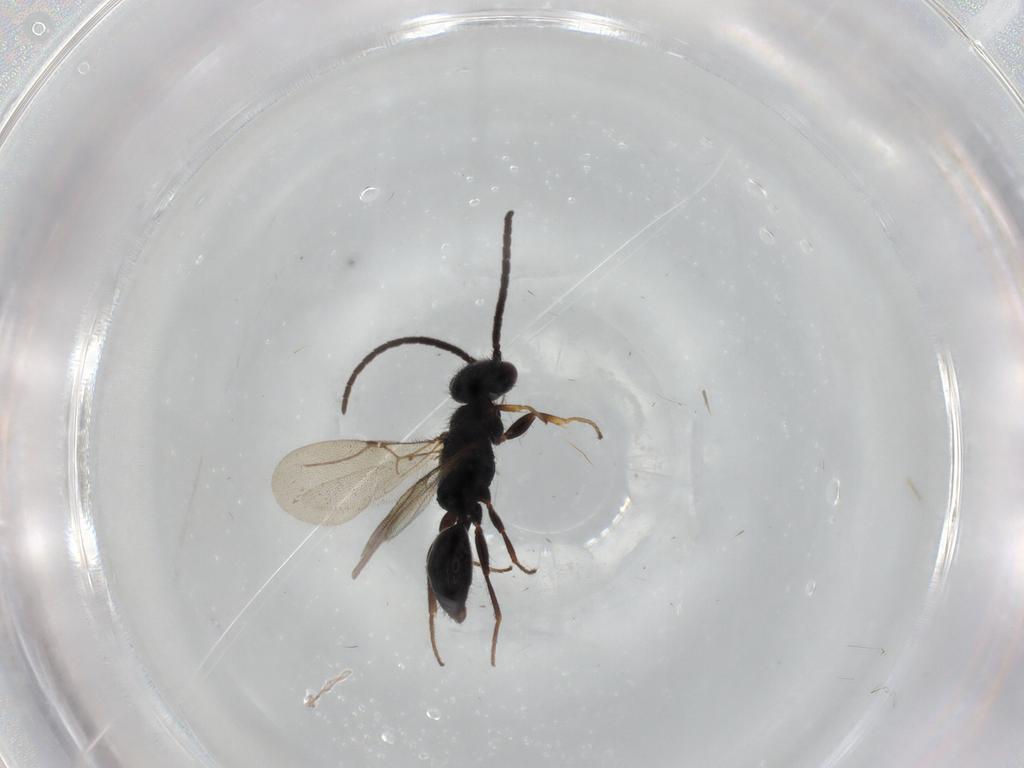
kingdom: Animalia
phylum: Arthropoda
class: Insecta
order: Hymenoptera
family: Bethylidae
